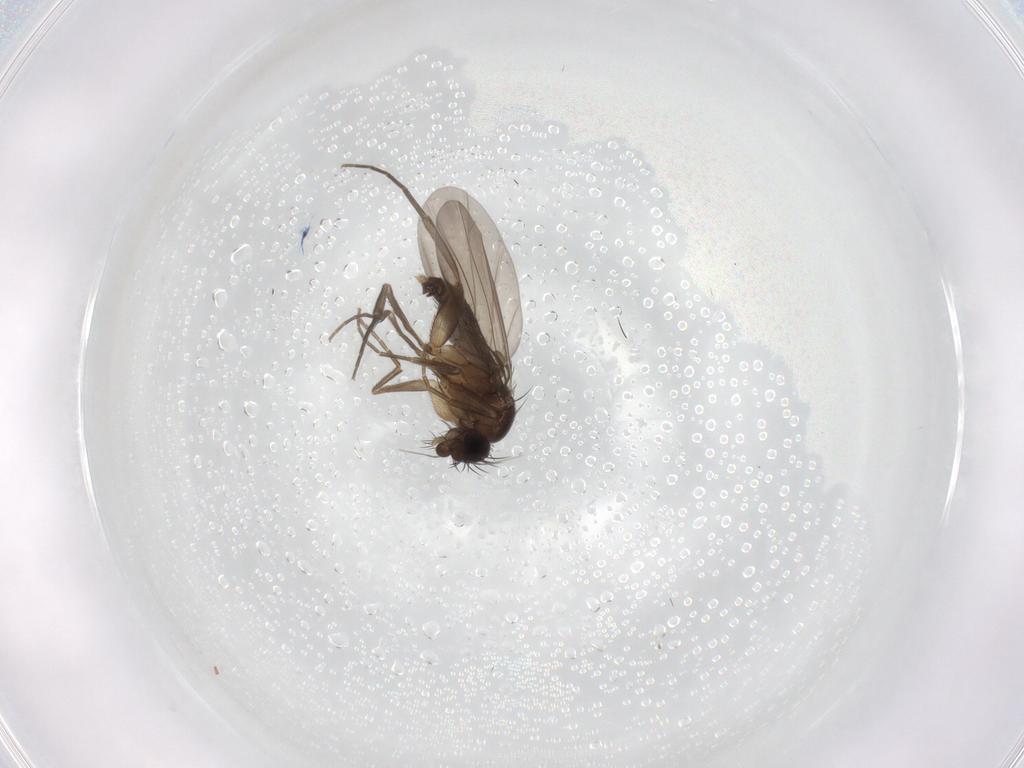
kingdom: Animalia
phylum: Arthropoda
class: Insecta
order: Diptera
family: Phoridae
